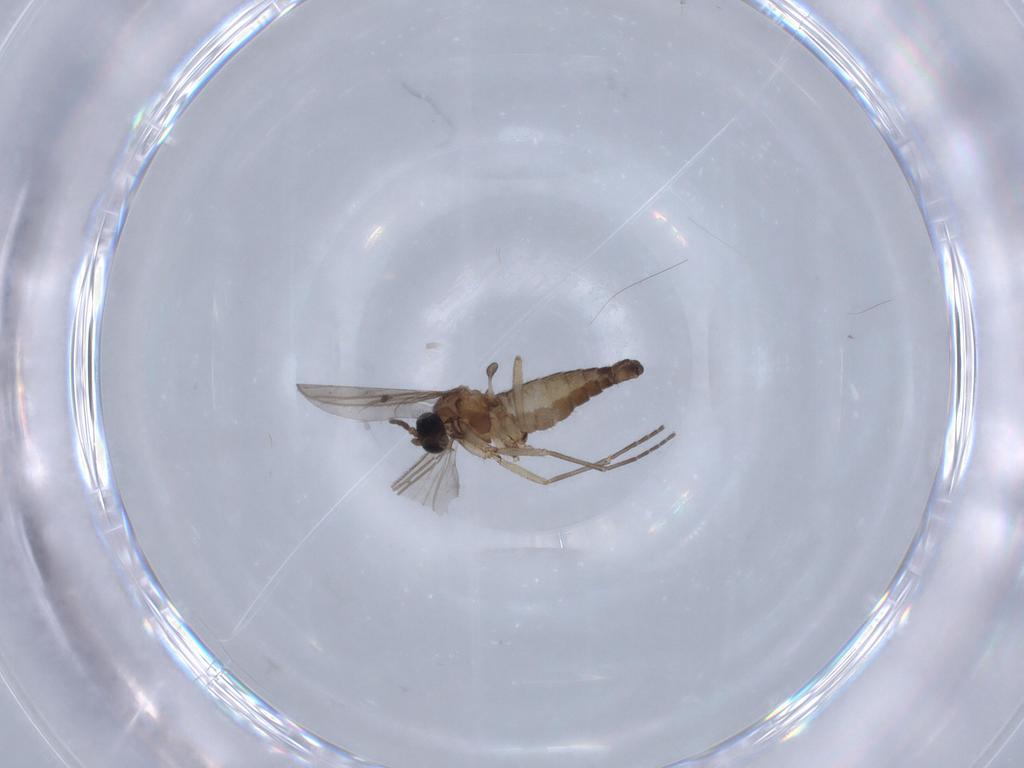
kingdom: Animalia
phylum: Arthropoda
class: Insecta
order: Diptera
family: Sciaridae
